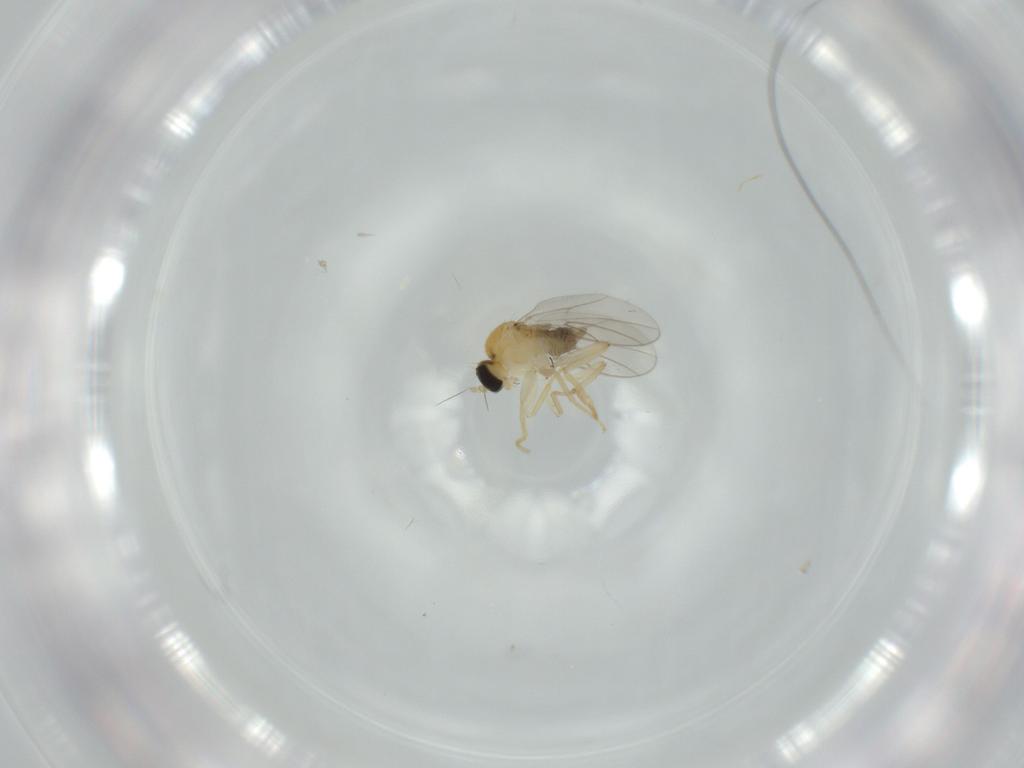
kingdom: Animalia
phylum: Arthropoda
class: Insecta
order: Diptera
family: Hybotidae
